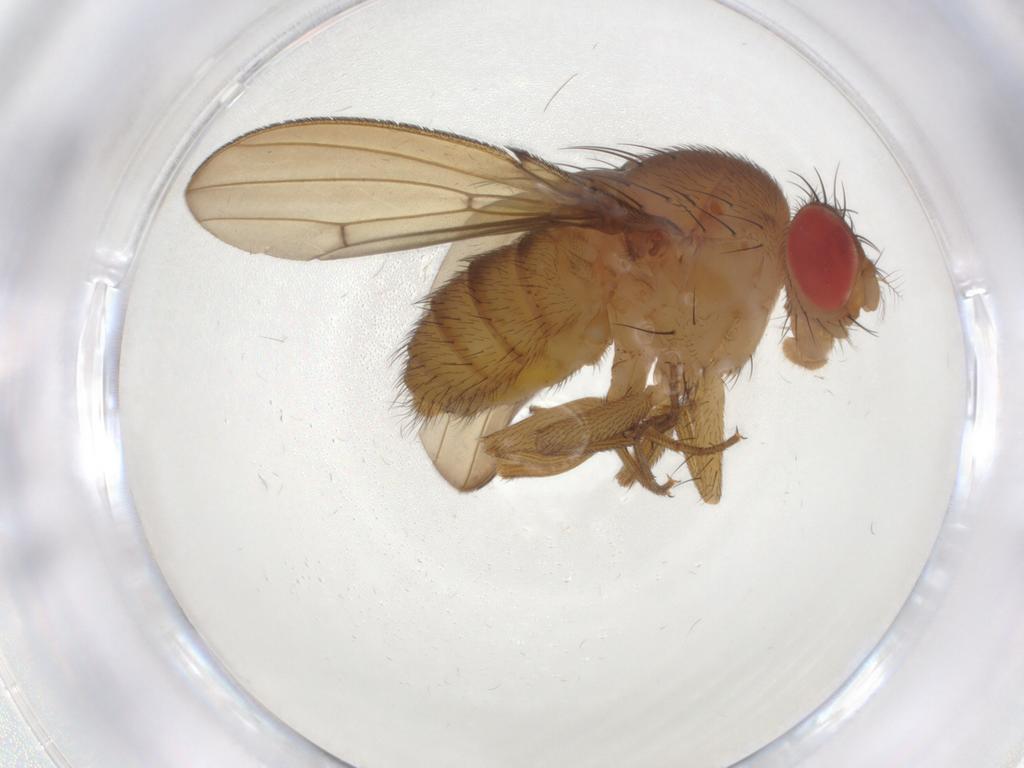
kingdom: Animalia
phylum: Arthropoda
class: Insecta
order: Diptera
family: Drosophilidae
